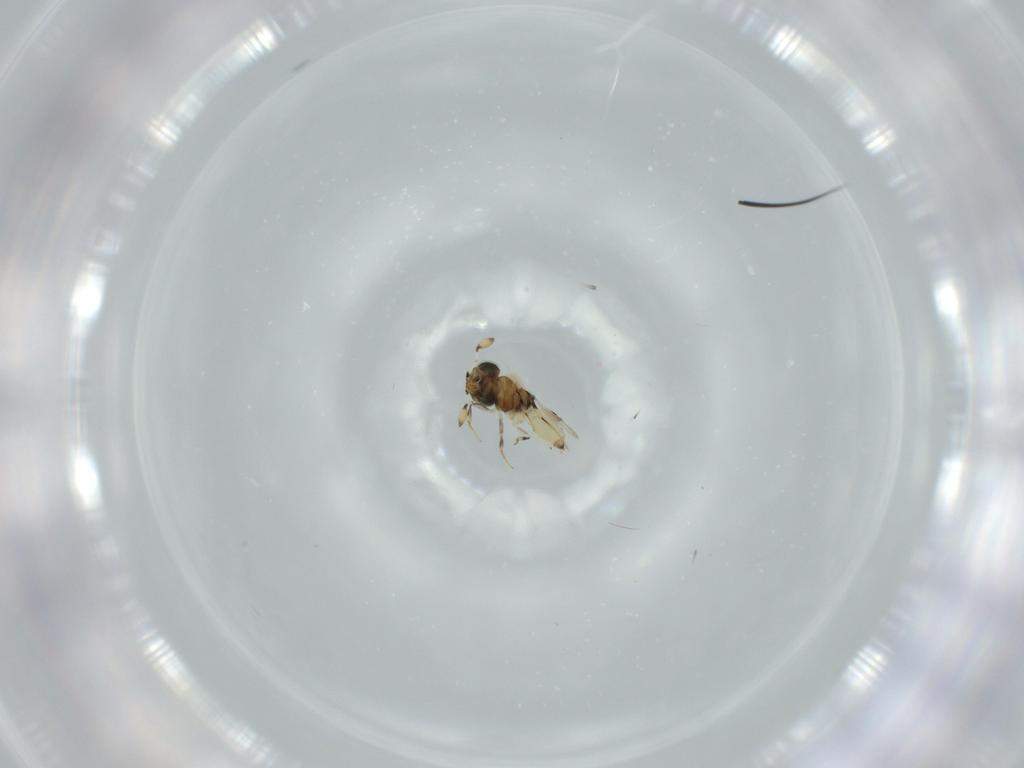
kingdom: Animalia
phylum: Arthropoda
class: Insecta
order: Hymenoptera
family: Scelionidae
